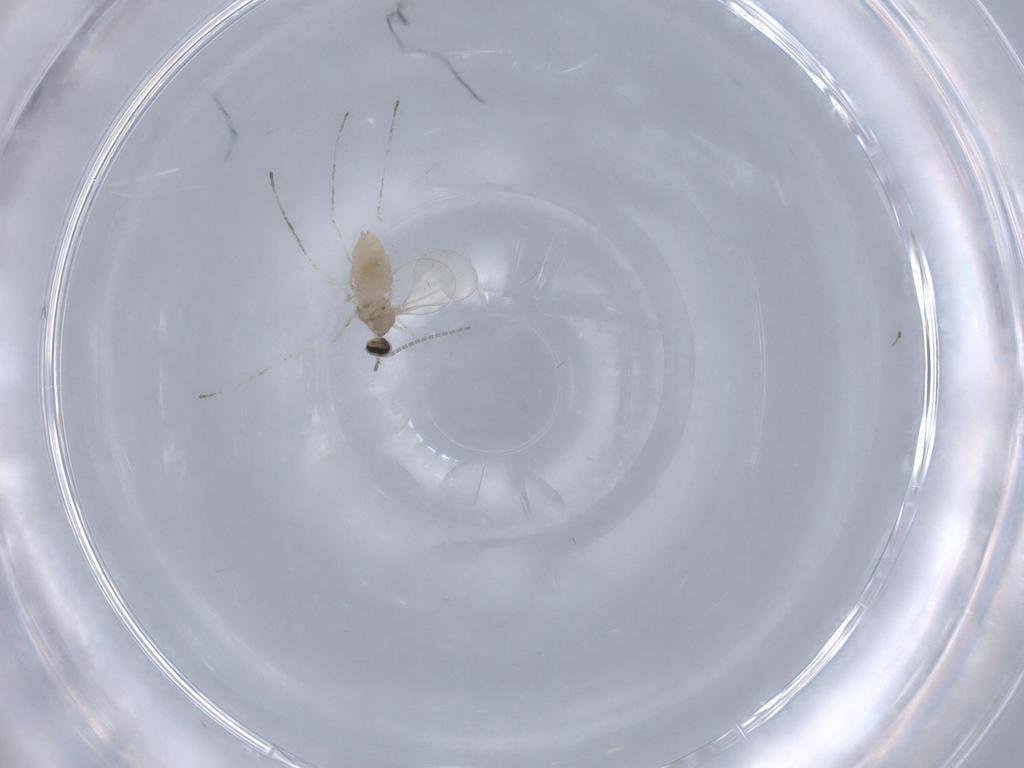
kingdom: Animalia
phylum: Arthropoda
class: Insecta
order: Diptera
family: Cecidomyiidae
